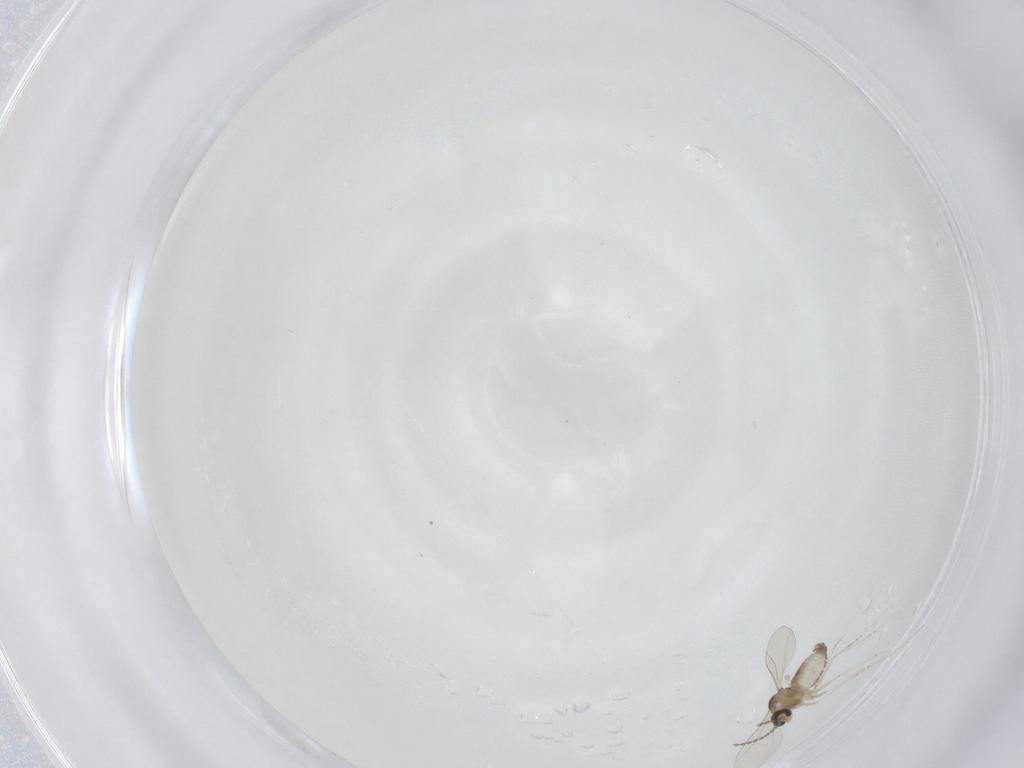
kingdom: Animalia
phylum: Arthropoda
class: Insecta
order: Diptera
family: Cecidomyiidae
